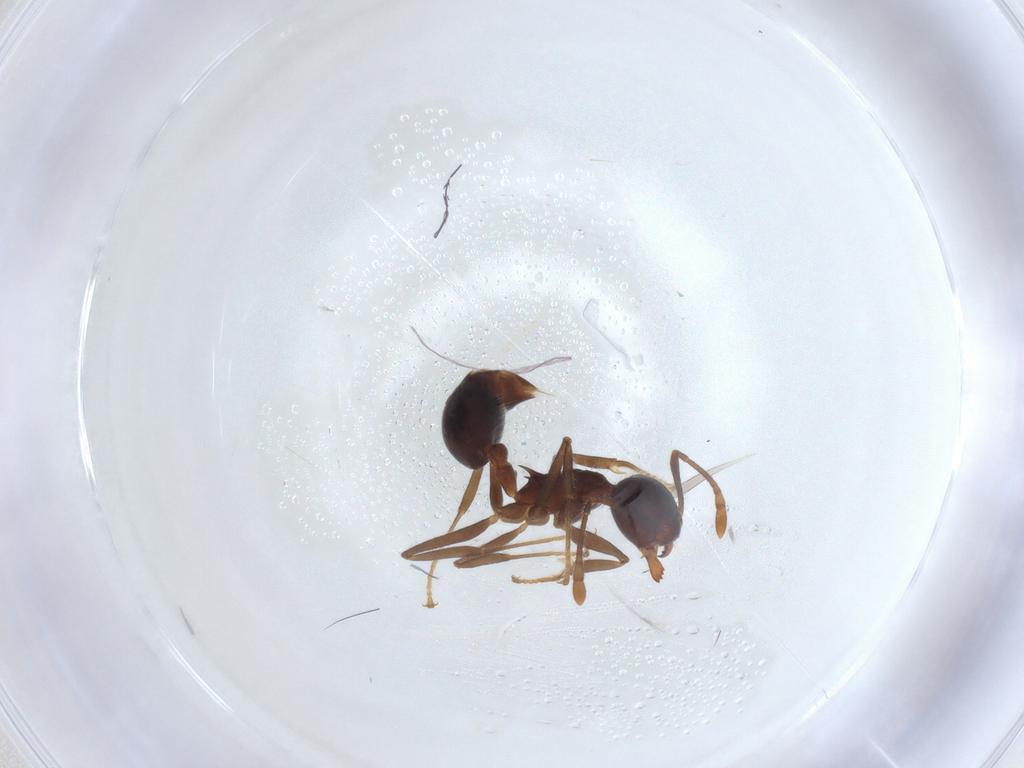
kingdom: Animalia
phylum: Arthropoda
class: Insecta
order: Hymenoptera
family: Formicidae
